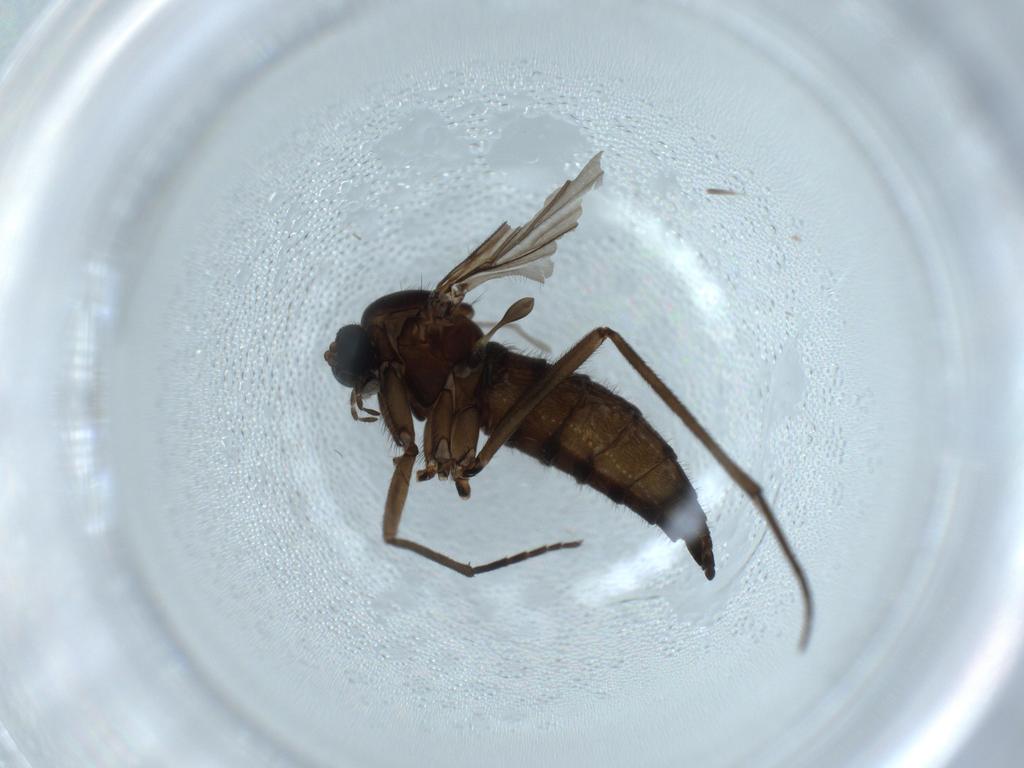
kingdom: Animalia
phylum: Arthropoda
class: Insecta
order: Diptera
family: Sciaridae
